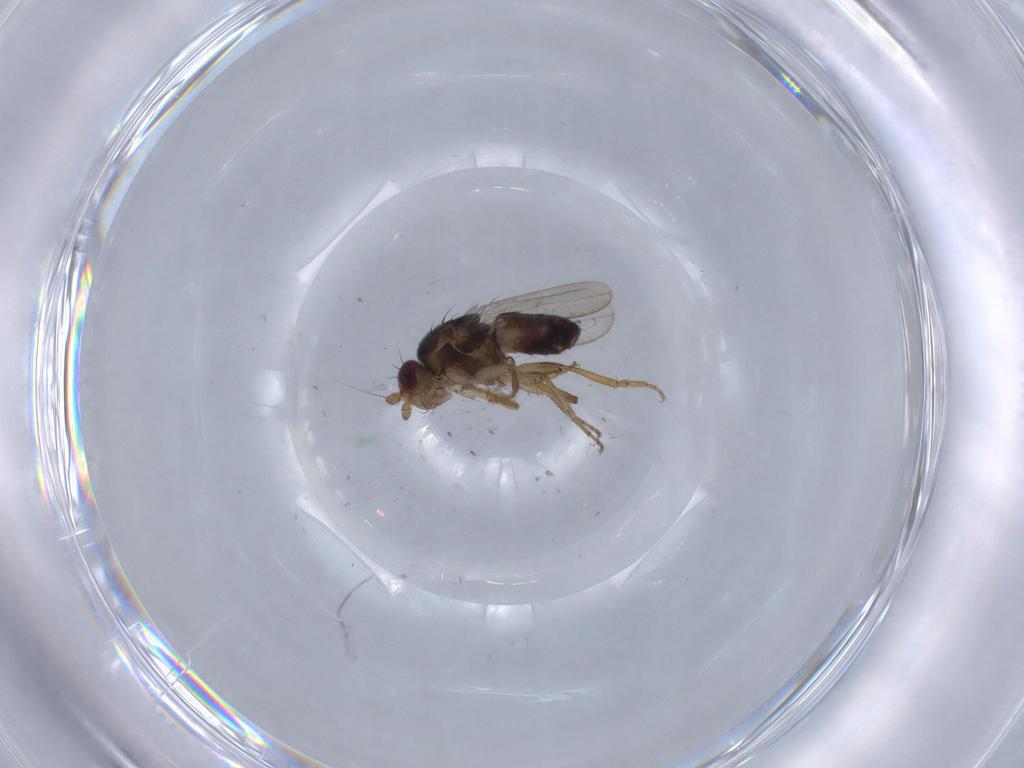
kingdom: Animalia
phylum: Arthropoda
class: Insecta
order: Diptera
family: Chironomidae
